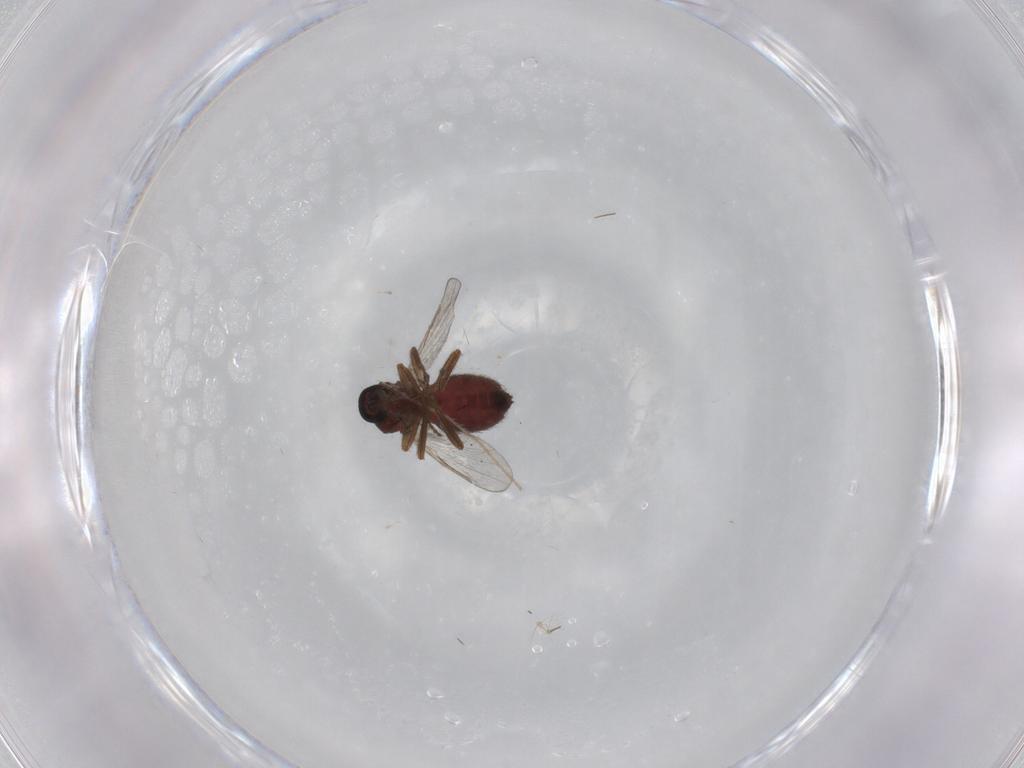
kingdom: Animalia
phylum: Arthropoda
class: Insecta
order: Diptera
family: Ceratopogonidae
